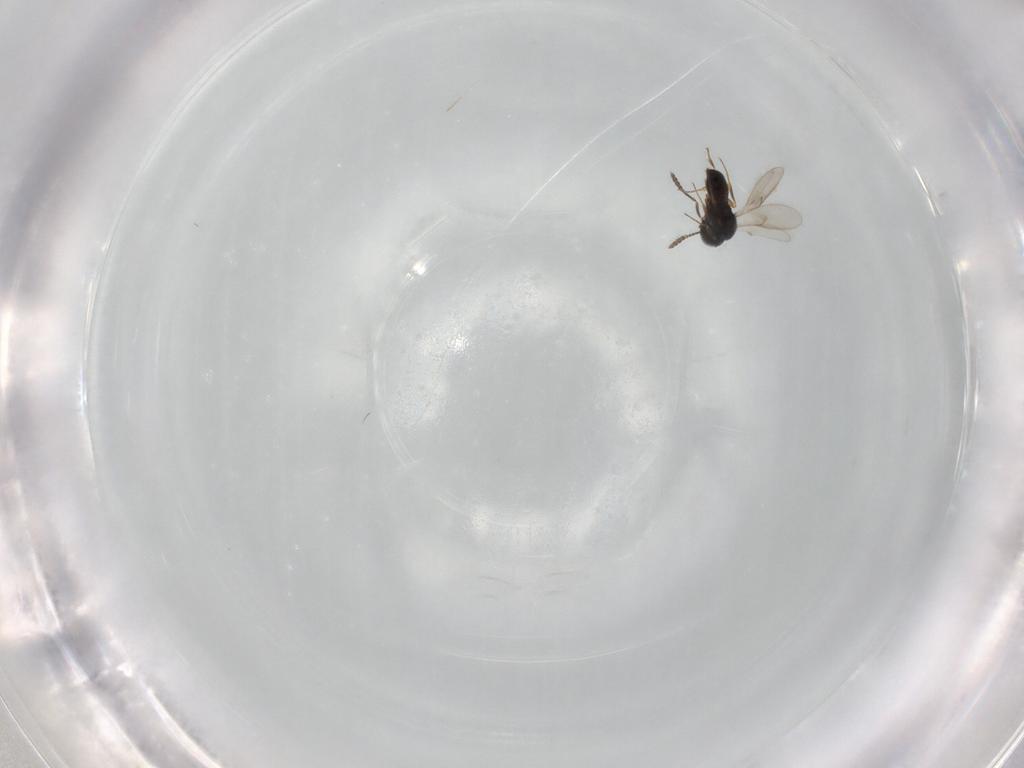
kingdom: Animalia
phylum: Arthropoda
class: Insecta
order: Hymenoptera
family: Scelionidae
